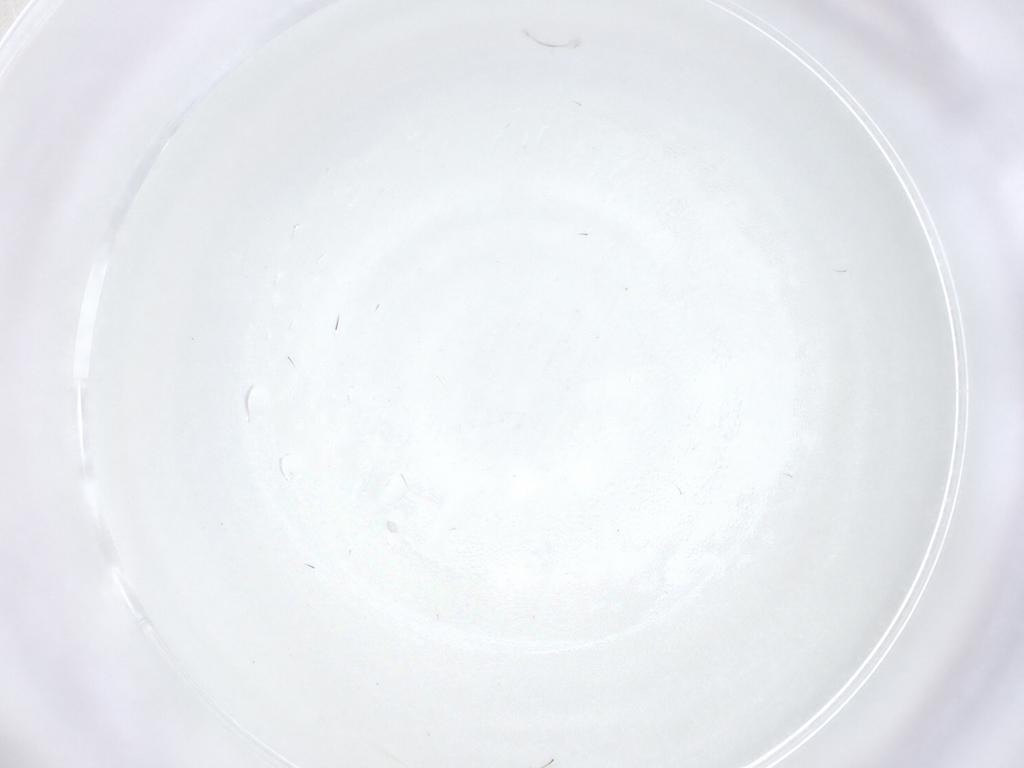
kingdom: Animalia
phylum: Arthropoda
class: Insecta
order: Hymenoptera
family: Aphelinidae
